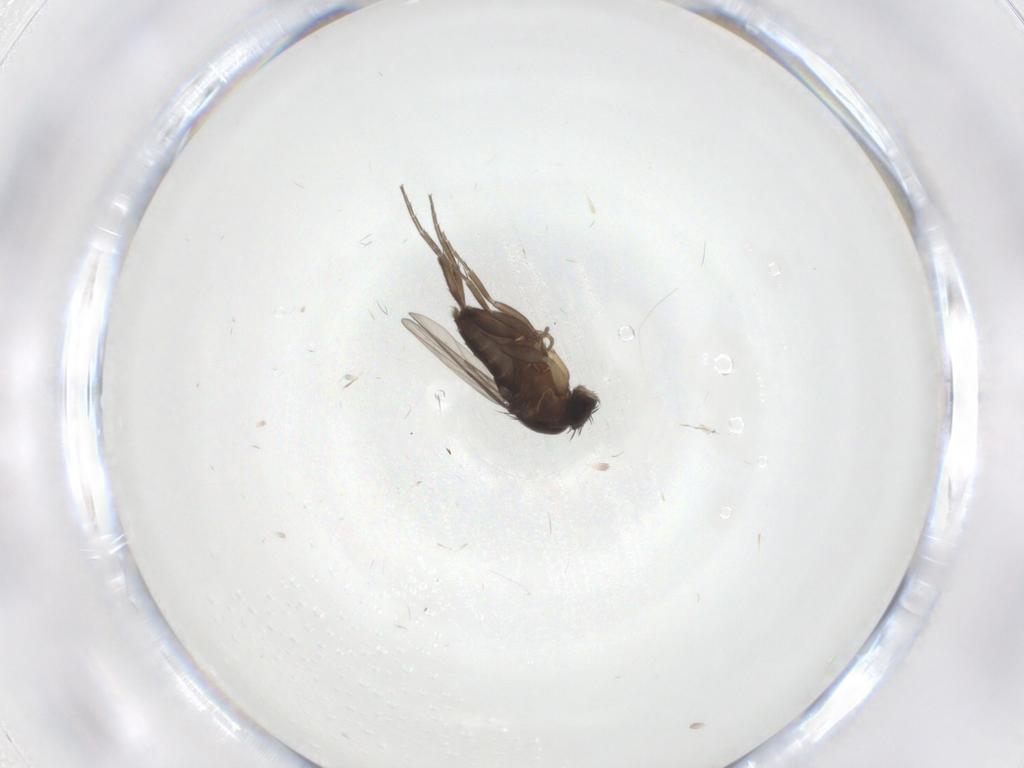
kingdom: Animalia
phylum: Arthropoda
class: Insecta
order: Diptera
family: Phoridae
